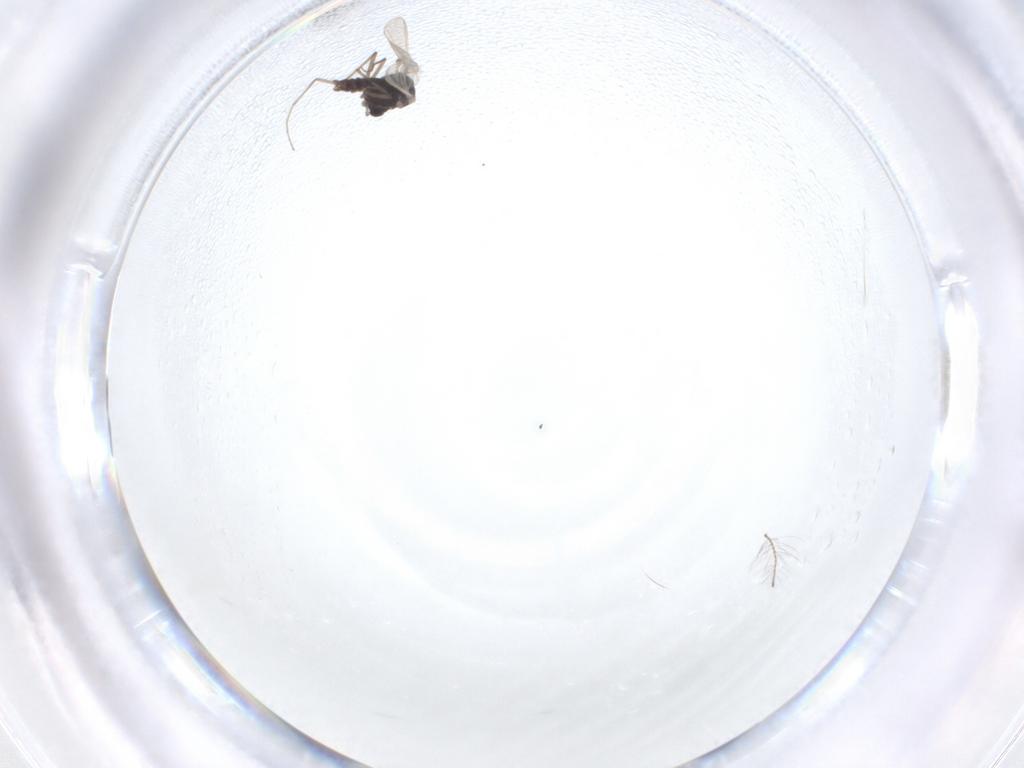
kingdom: Animalia
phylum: Arthropoda
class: Insecta
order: Diptera
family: Chironomidae
